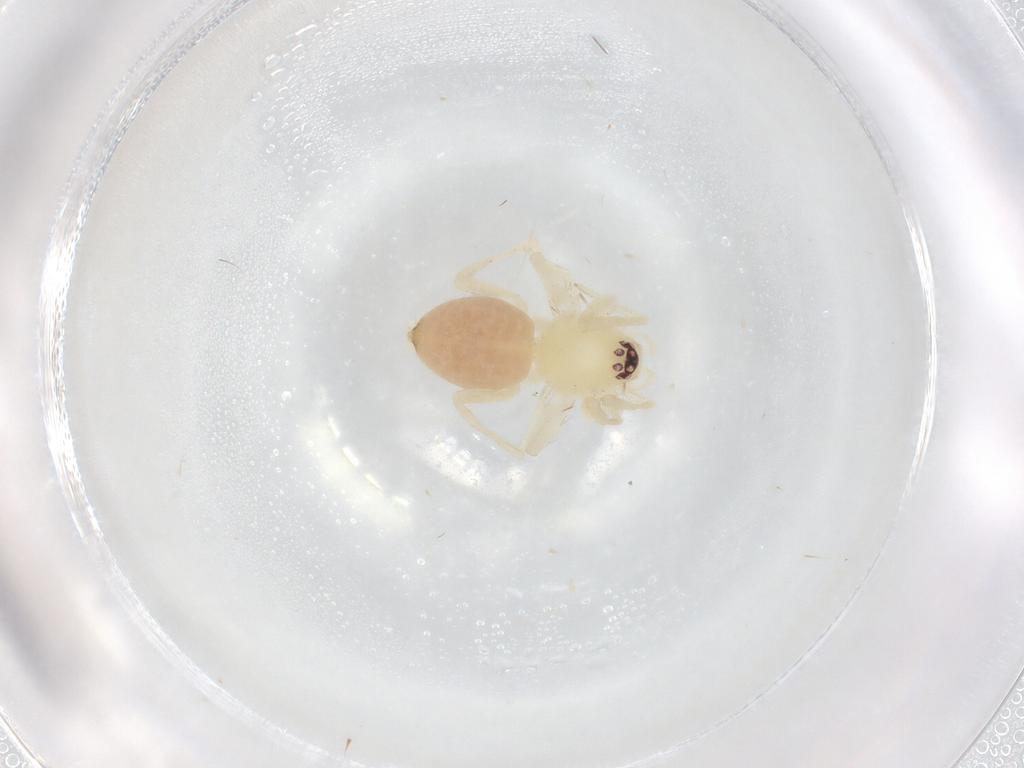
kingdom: Animalia
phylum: Arthropoda
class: Arachnida
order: Araneae
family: Gnaphosidae
